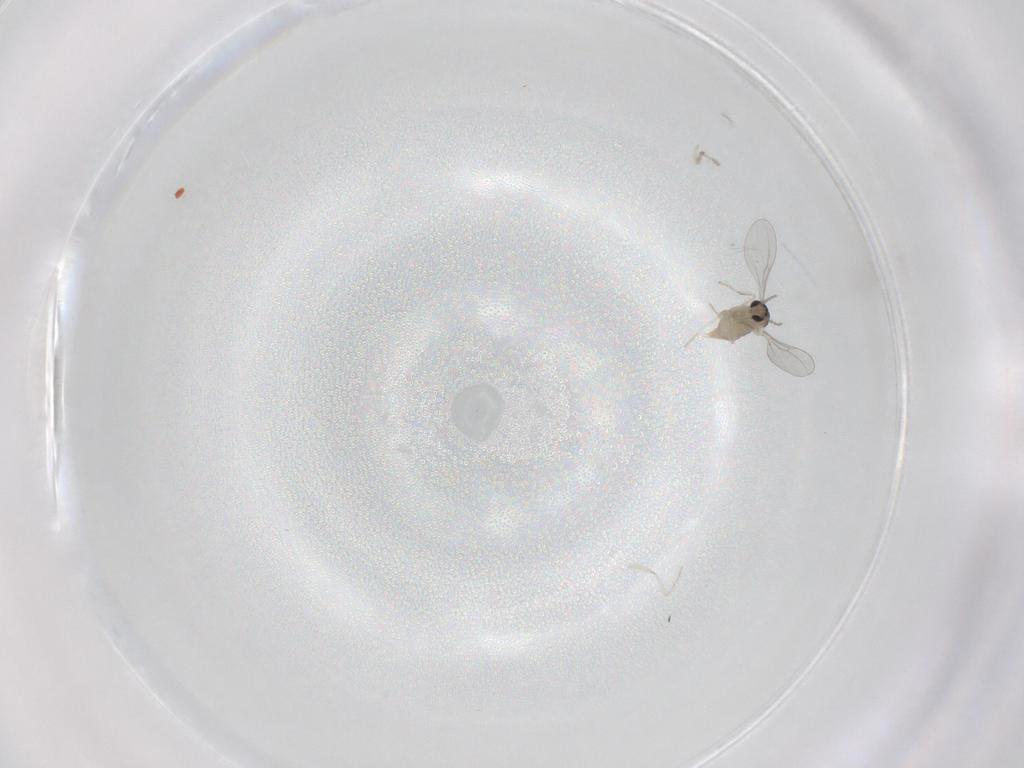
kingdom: Animalia
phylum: Arthropoda
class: Insecta
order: Diptera
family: Cecidomyiidae
